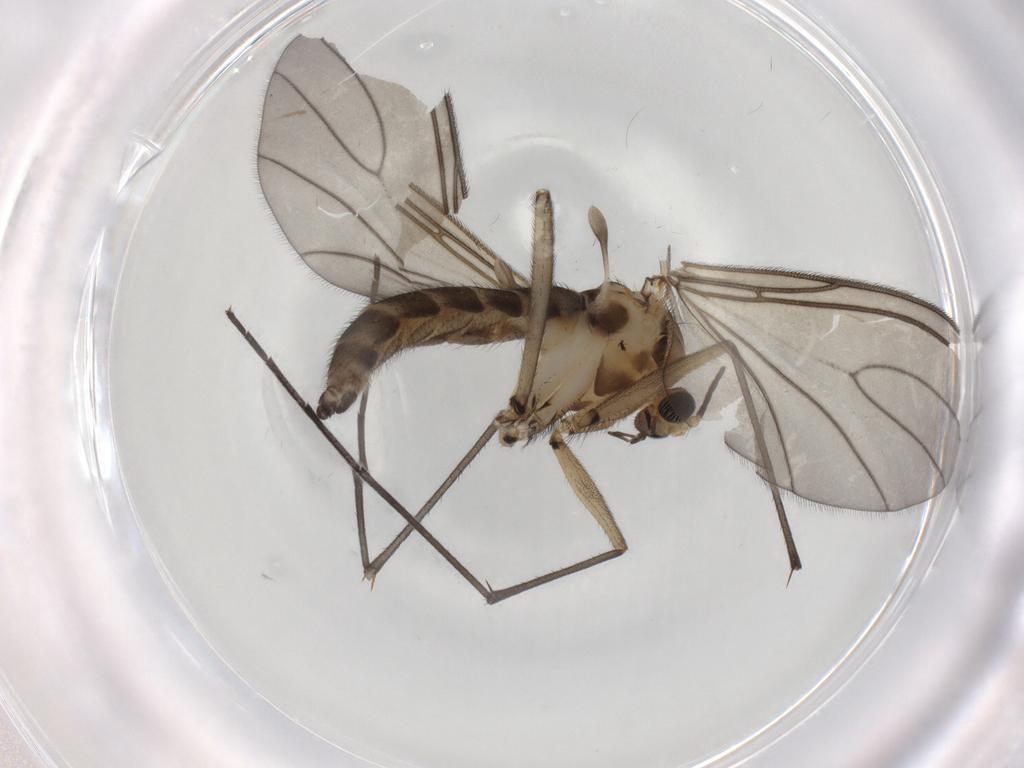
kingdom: Animalia
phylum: Arthropoda
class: Insecta
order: Diptera
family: Sciaridae
